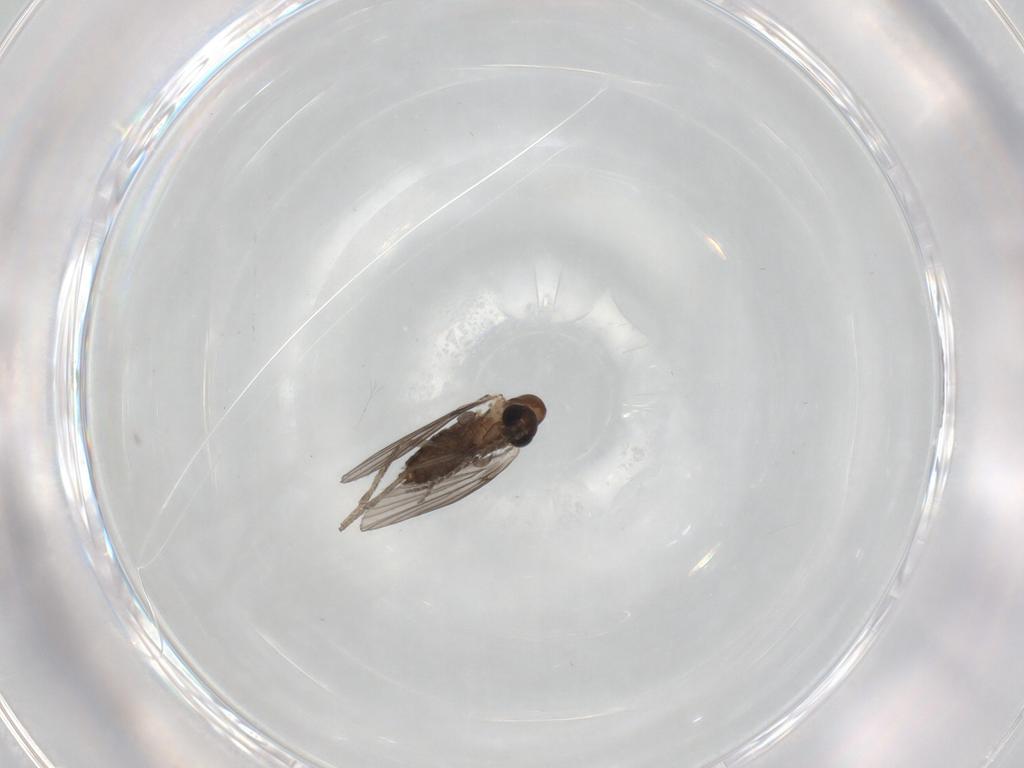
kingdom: Animalia
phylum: Arthropoda
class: Insecta
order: Diptera
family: Psychodidae
